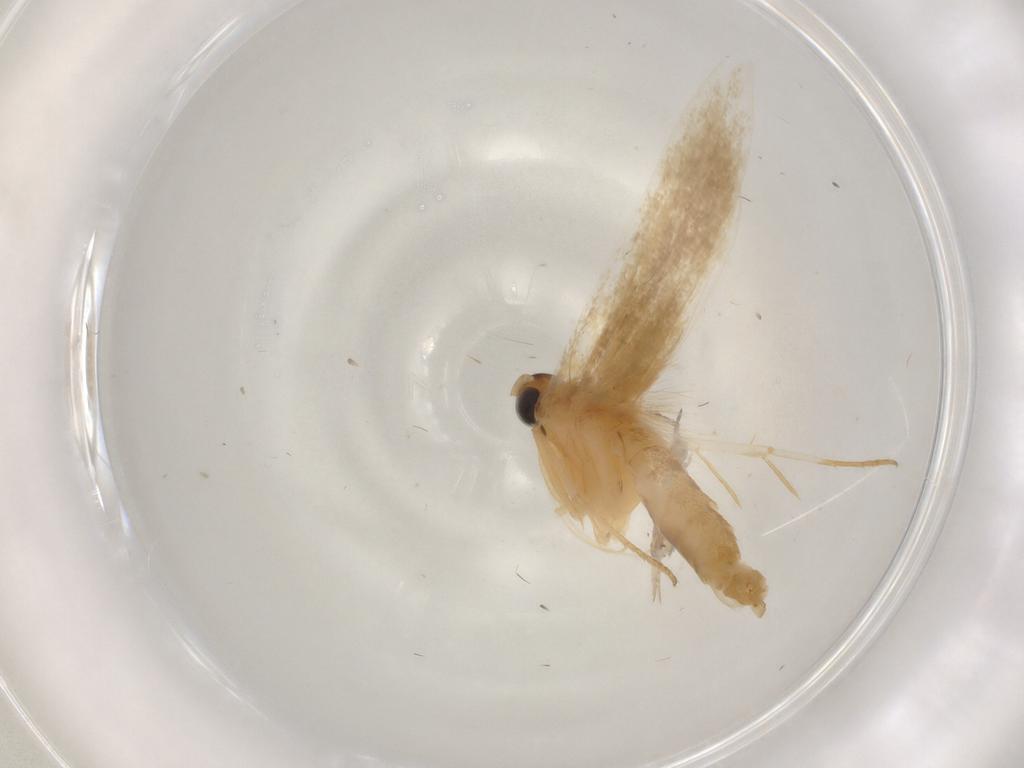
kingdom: Animalia
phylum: Arthropoda
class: Insecta
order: Lepidoptera
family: Lecithoceridae
